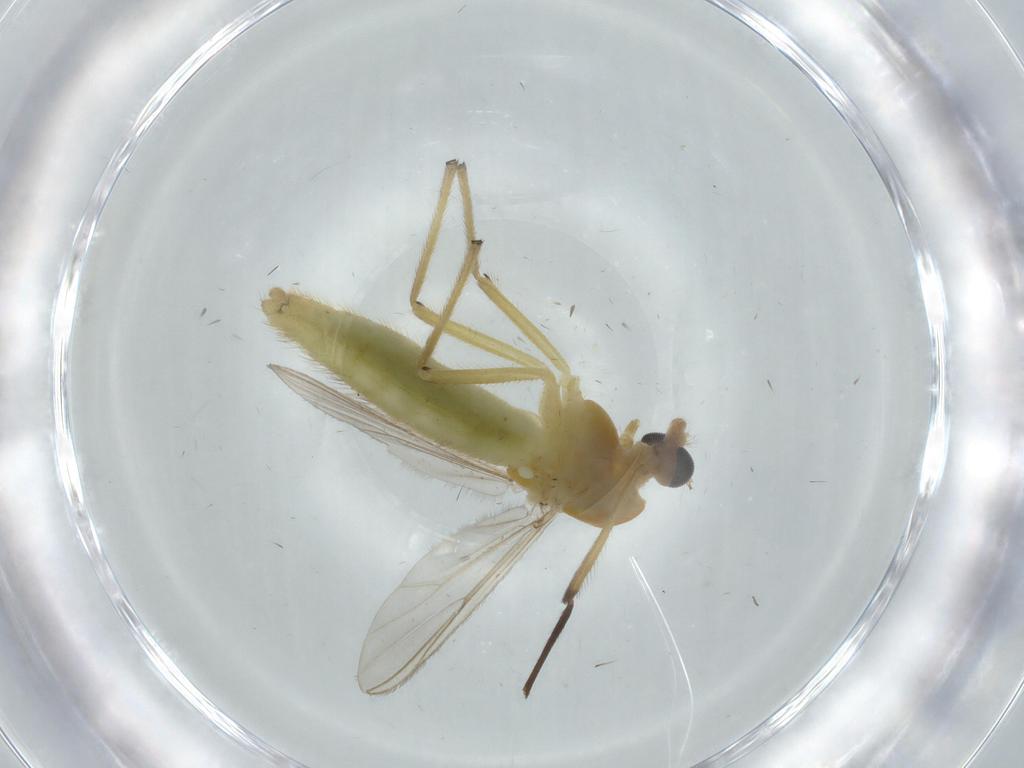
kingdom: Animalia
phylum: Arthropoda
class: Insecta
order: Diptera
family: Chironomidae
